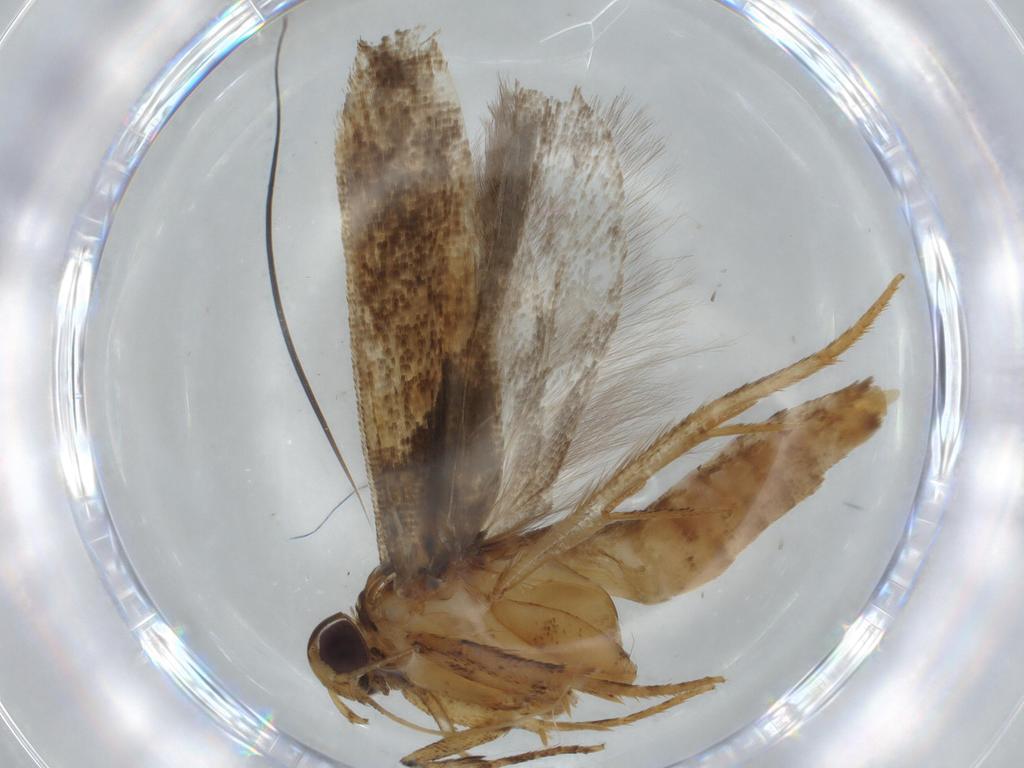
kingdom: Animalia
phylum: Arthropoda
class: Insecta
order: Lepidoptera
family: Gelechiidae
